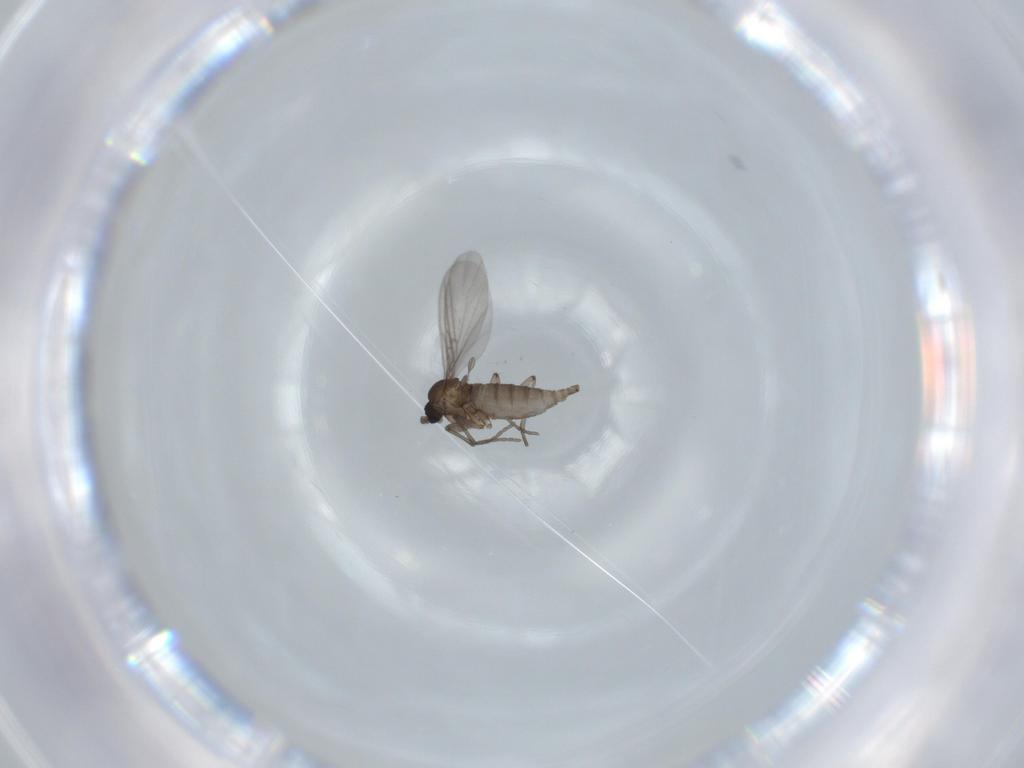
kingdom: Animalia
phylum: Arthropoda
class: Insecta
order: Diptera
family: Sciaridae
